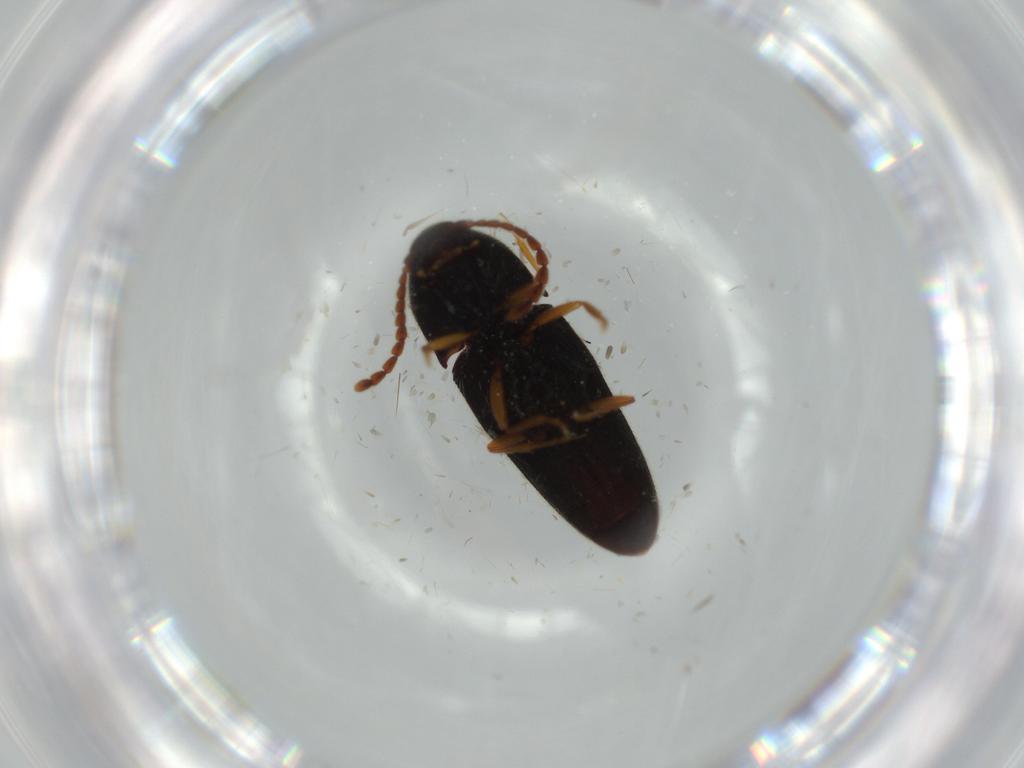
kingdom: Animalia
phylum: Arthropoda
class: Insecta
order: Coleoptera
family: Elateridae
